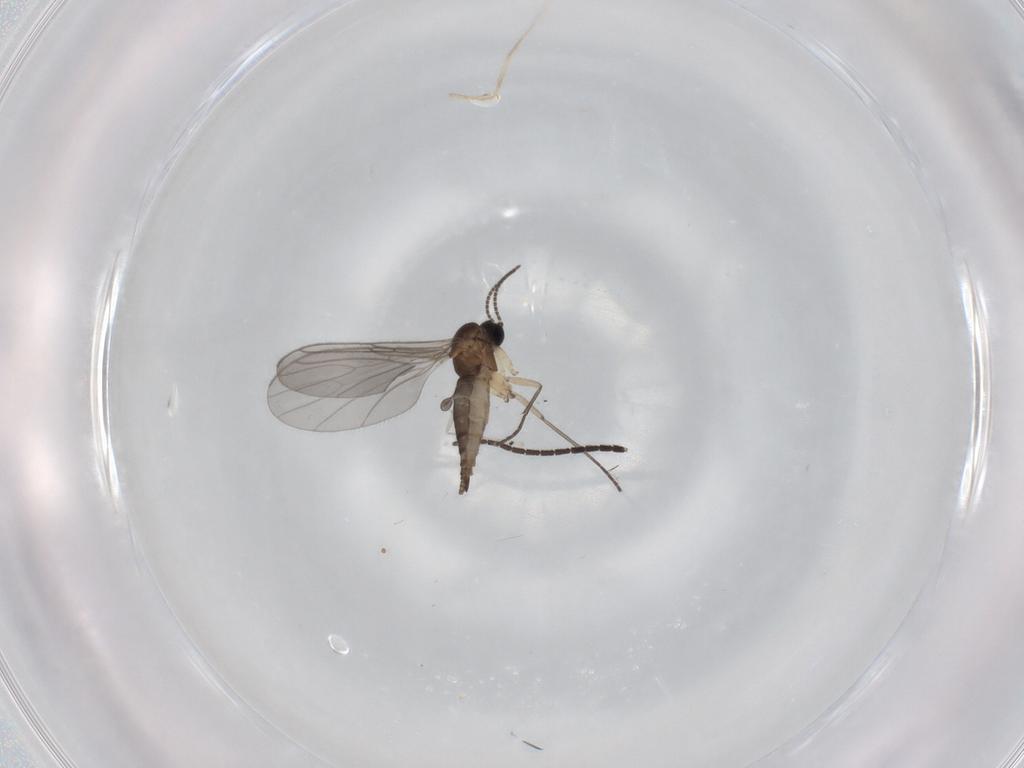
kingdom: Animalia
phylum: Arthropoda
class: Insecta
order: Diptera
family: Sciaridae
